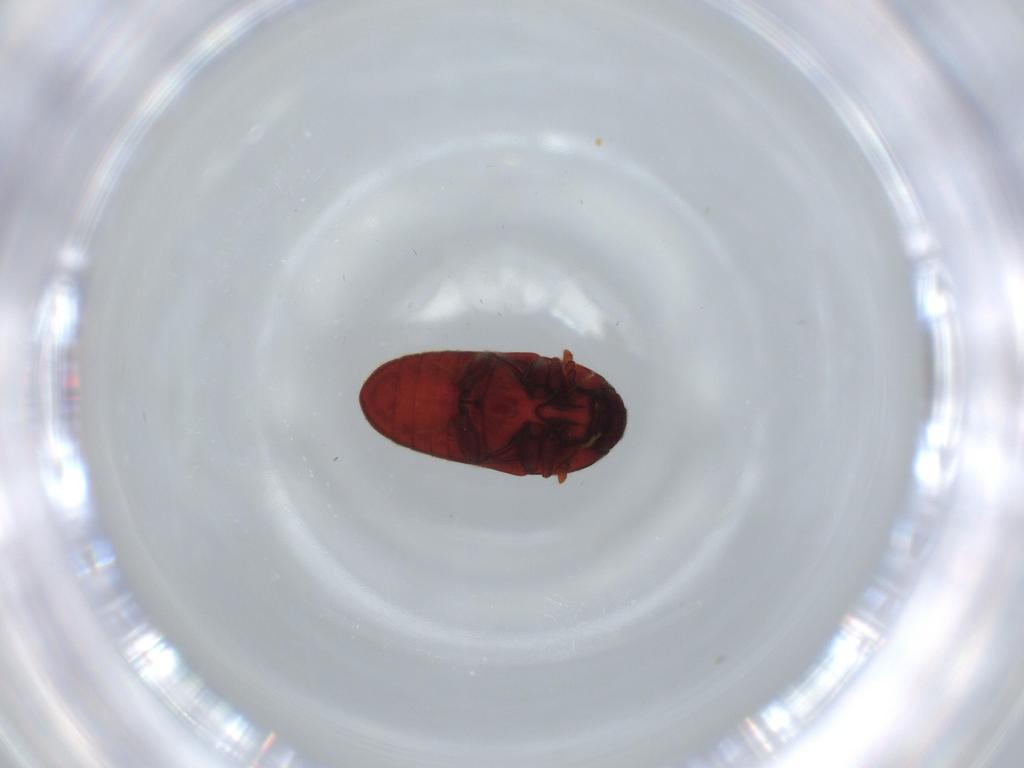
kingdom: Animalia
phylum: Arthropoda
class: Insecta
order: Coleoptera
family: Throscidae
